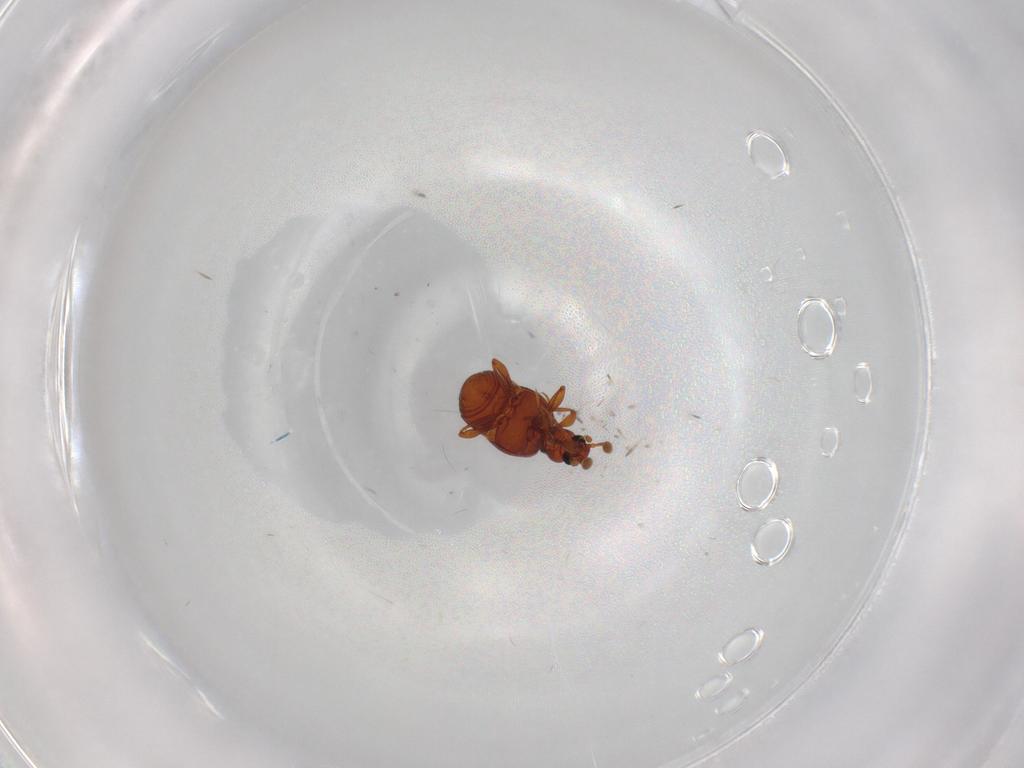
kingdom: Animalia
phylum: Arthropoda
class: Insecta
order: Coleoptera
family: Staphylinidae
